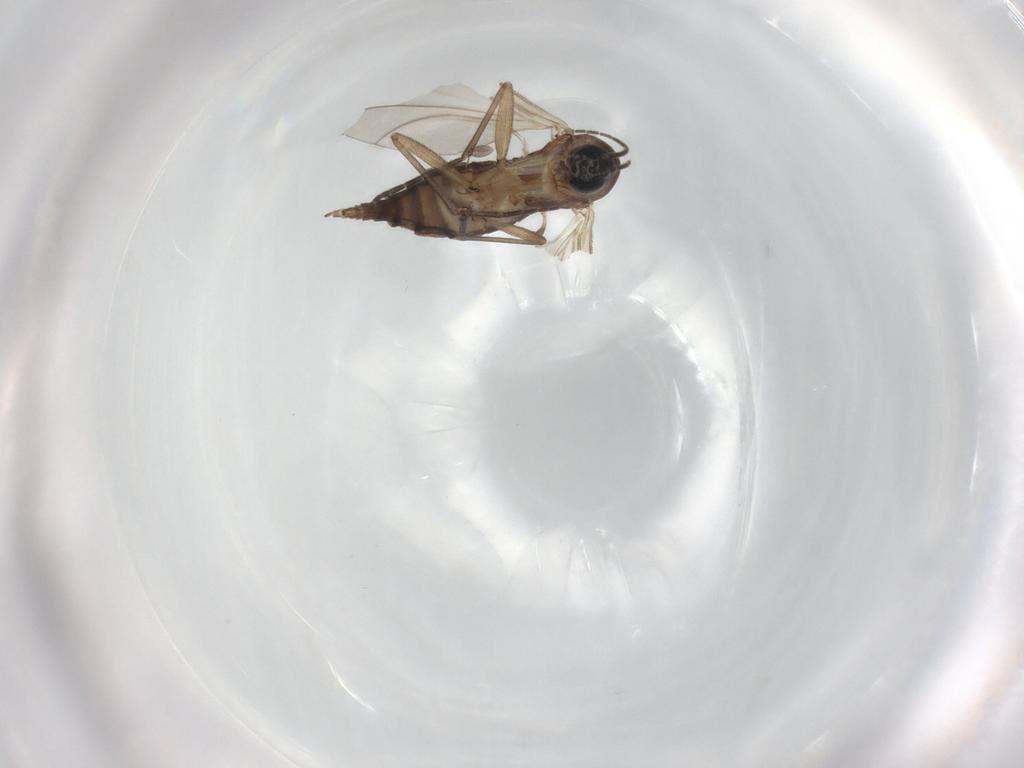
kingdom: Animalia
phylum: Arthropoda
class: Insecta
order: Diptera
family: Sciaridae
